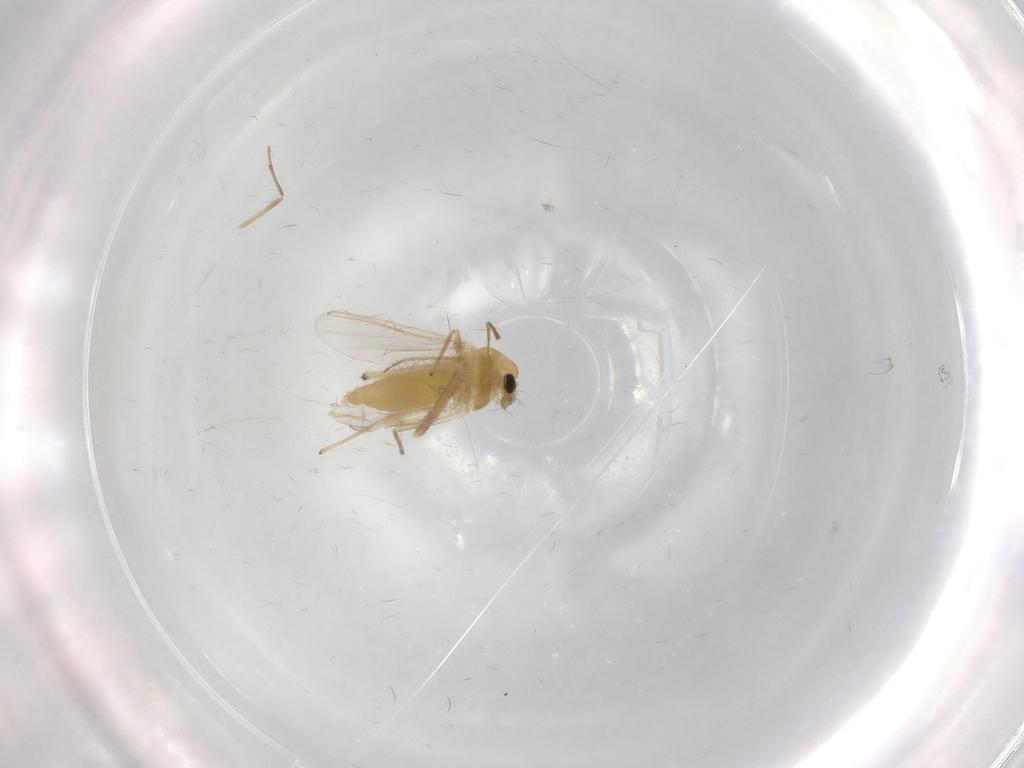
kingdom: Animalia
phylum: Arthropoda
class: Insecta
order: Diptera
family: Chironomidae
